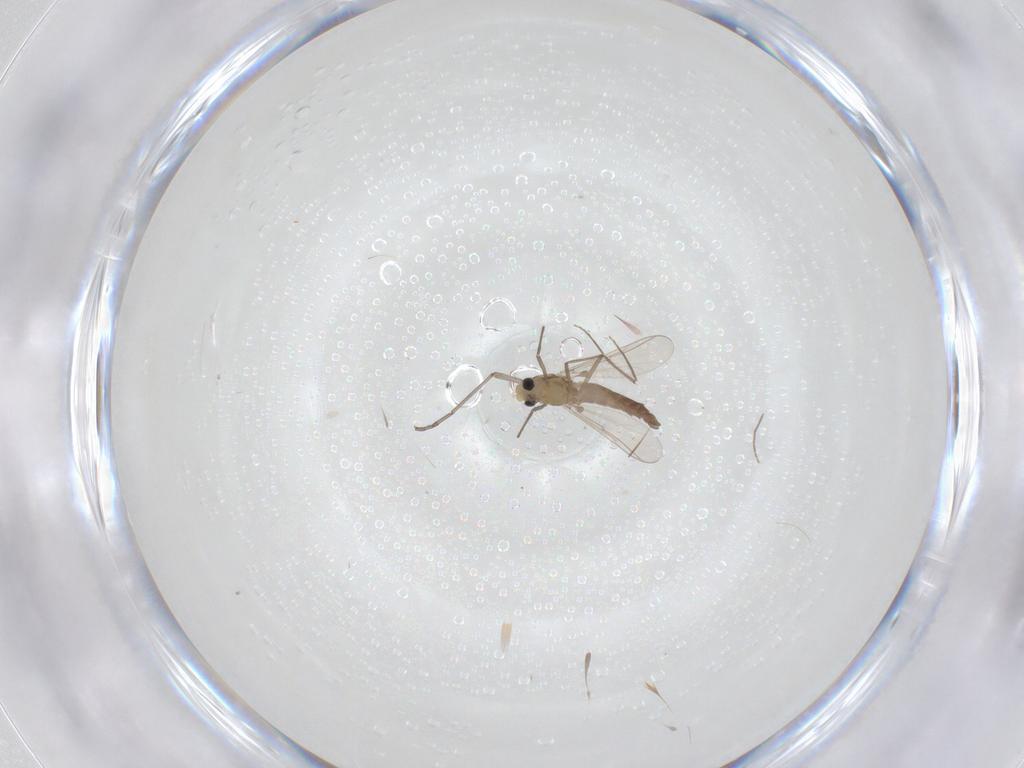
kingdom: Animalia
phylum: Arthropoda
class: Insecta
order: Diptera
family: Chironomidae
